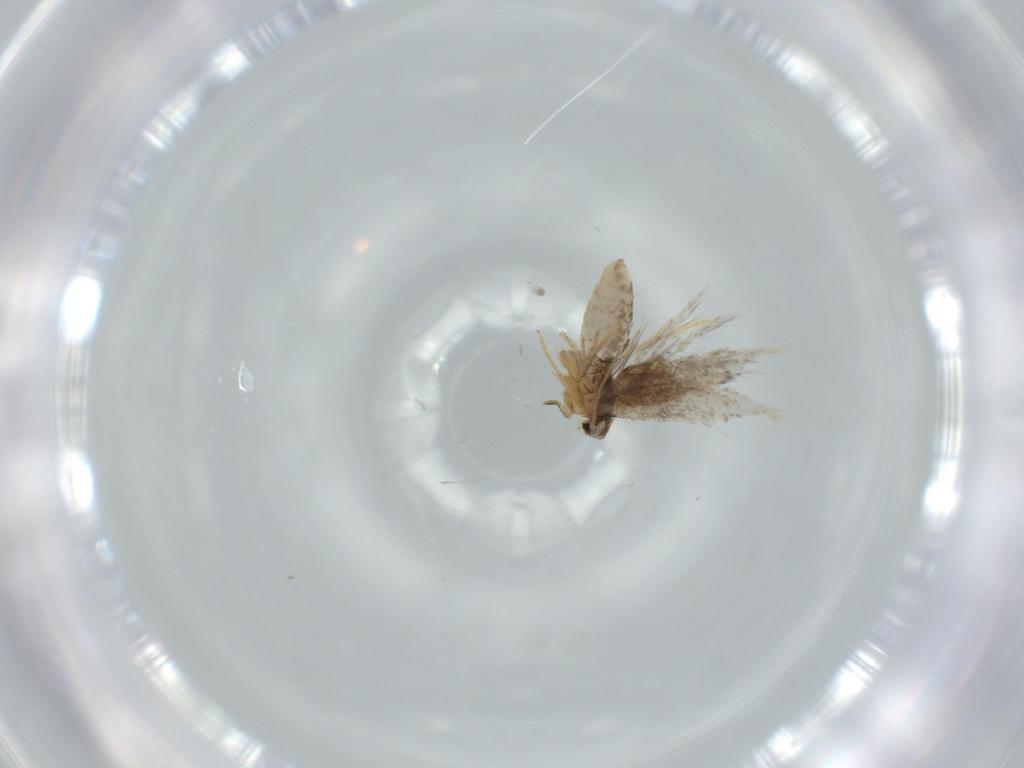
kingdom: Animalia
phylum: Arthropoda
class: Insecta
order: Lepidoptera
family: Nepticulidae
